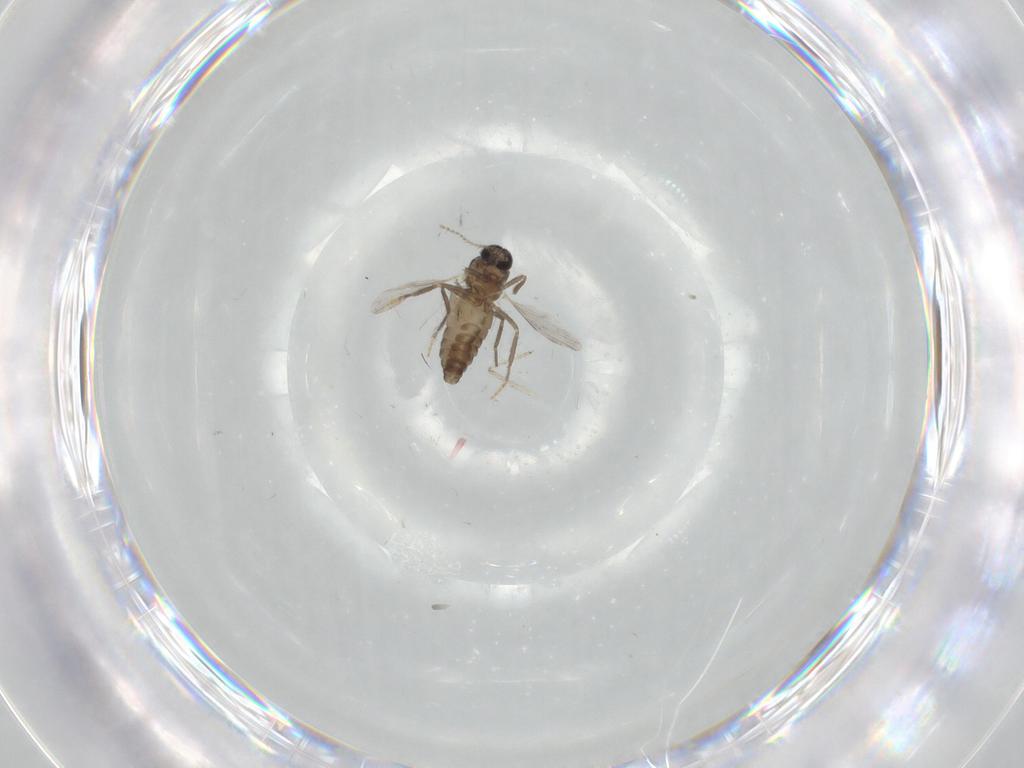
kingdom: Animalia
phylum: Arthropoda
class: Insecta
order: Diptera
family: Ceratopogonidae
